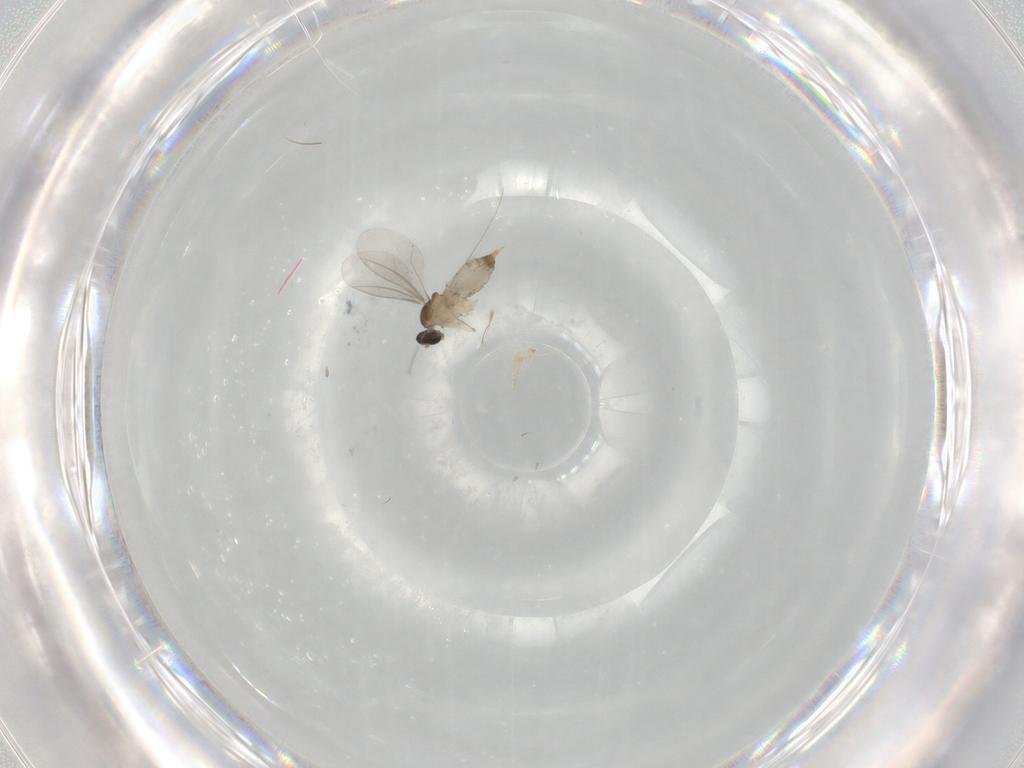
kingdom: Animalia
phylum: Arthropoda
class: Insecta
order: Diptera
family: Cecidomyiidae
